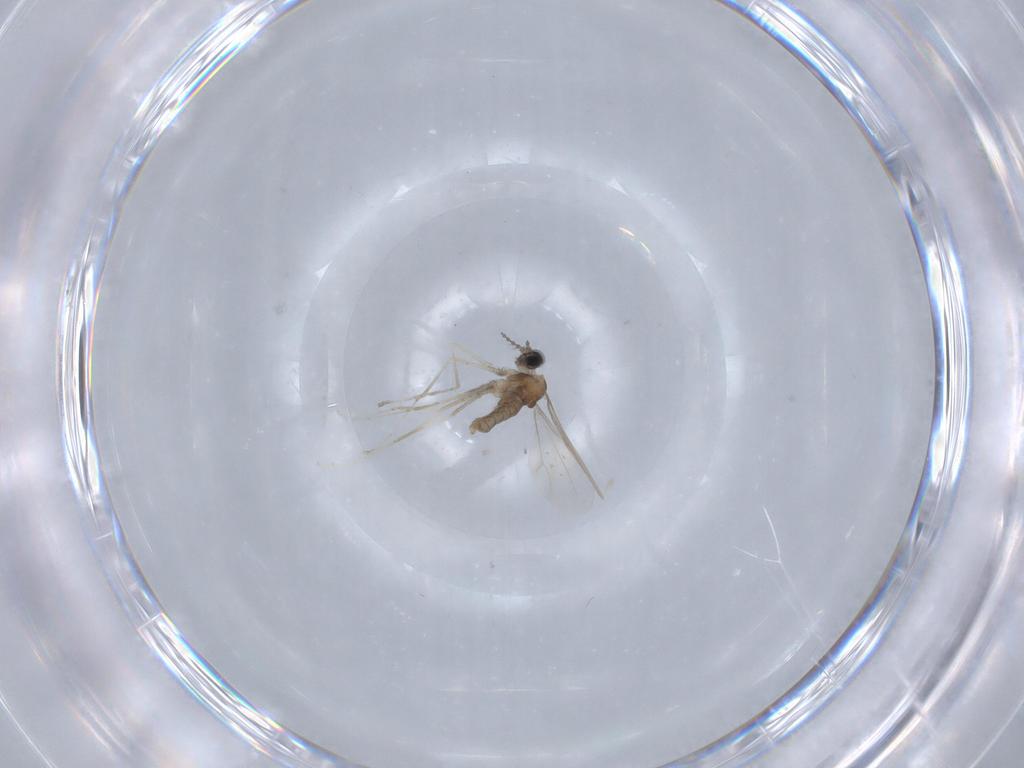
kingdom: Animalia
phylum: Arthropoda
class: Insecta
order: Diptera
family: Cecidomyiidae
